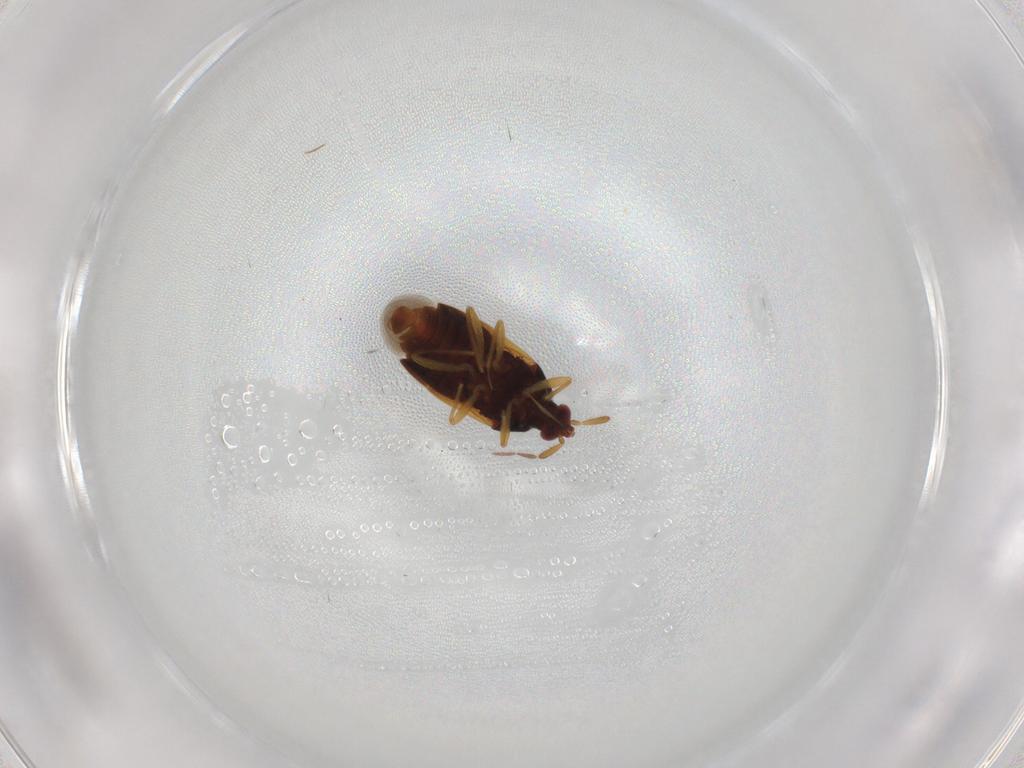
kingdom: Animalia
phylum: Arthropoda
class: Insecta
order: Hemiptera
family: Anthocoridae
